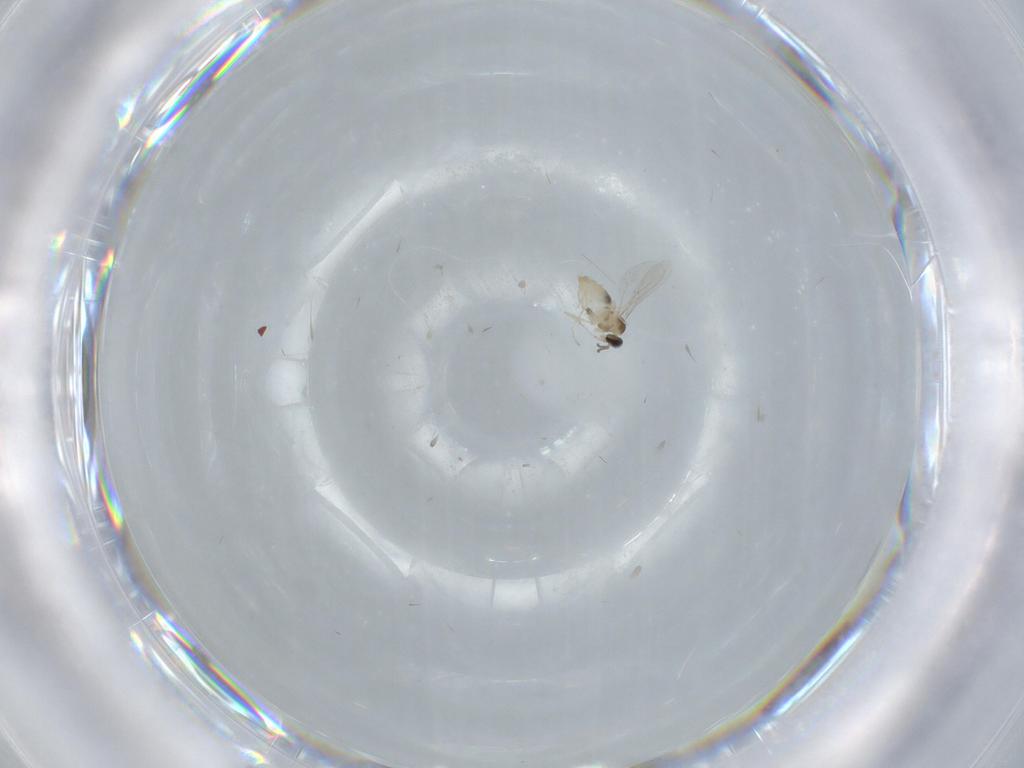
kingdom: Animalia
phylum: Arthropoda
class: Insecta
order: Diptera
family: Cecidomyiidae
